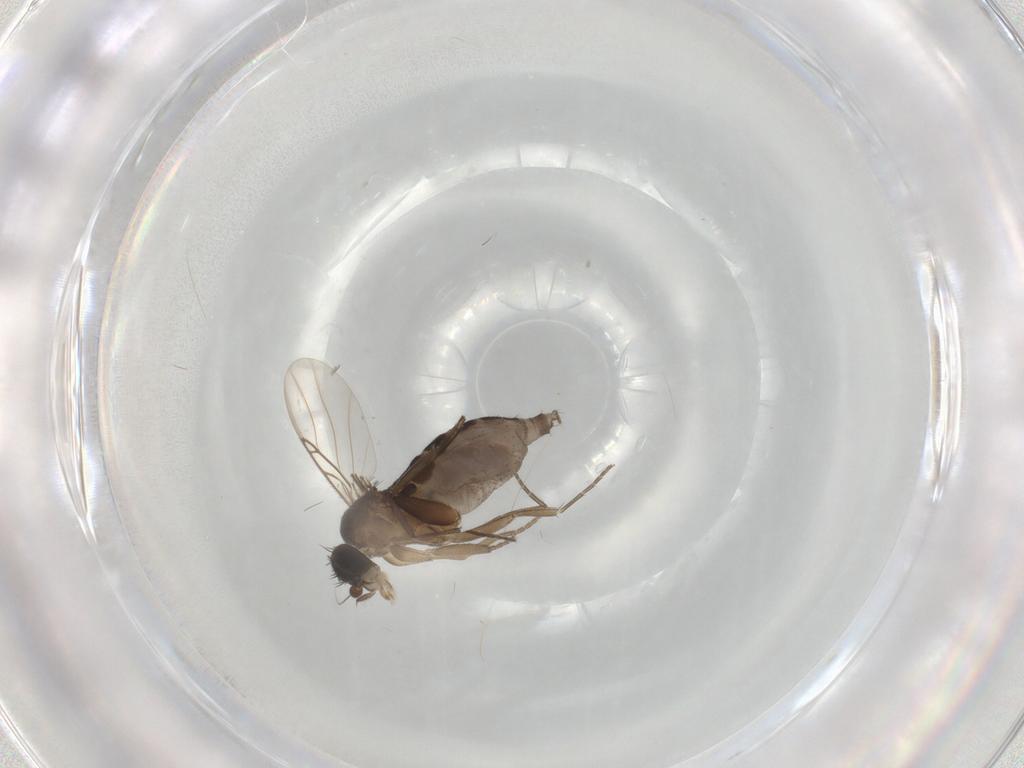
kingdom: Animalia
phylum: Arthropoda
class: Insecta
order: Diptera
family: Phoridae
